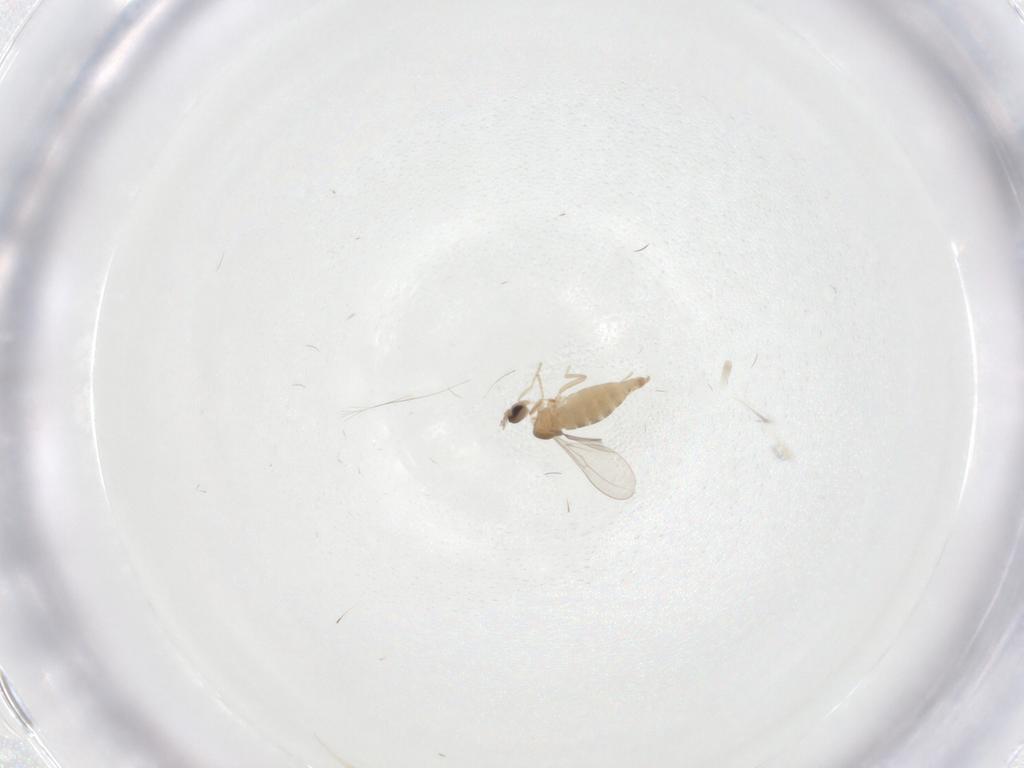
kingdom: Animalia
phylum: Arthropoda
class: Insecta
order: Diptera
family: Cecidomyiidae
